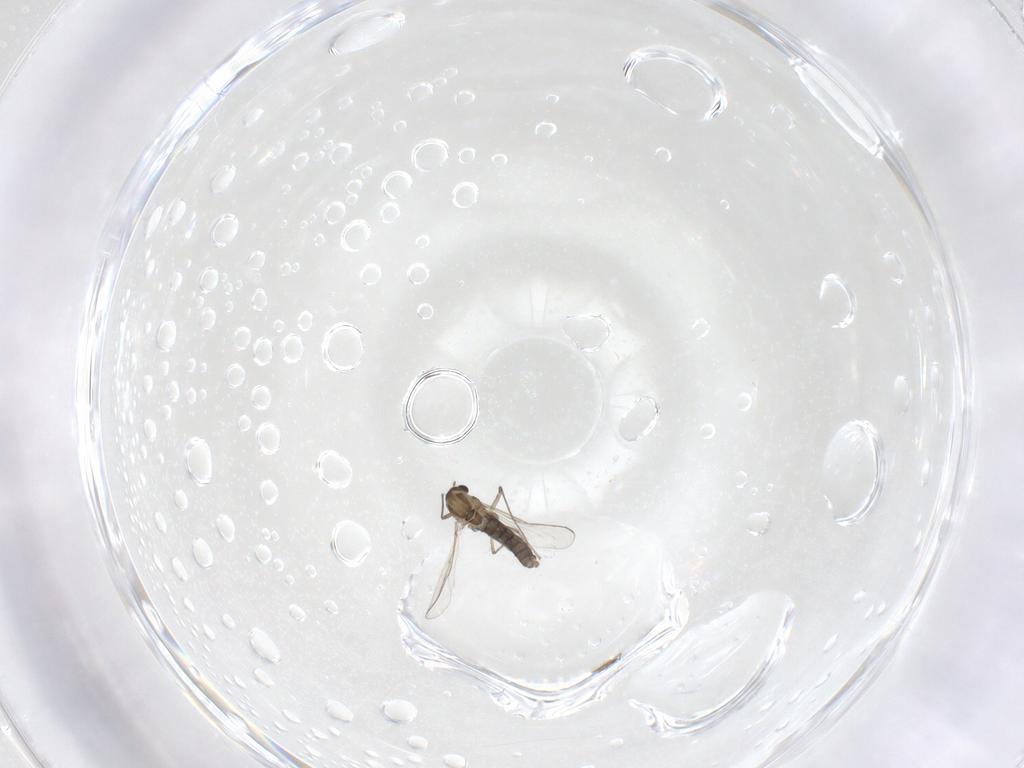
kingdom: Animalia
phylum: Arthropoda
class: Insecta
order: Diptera
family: Chironomidae
